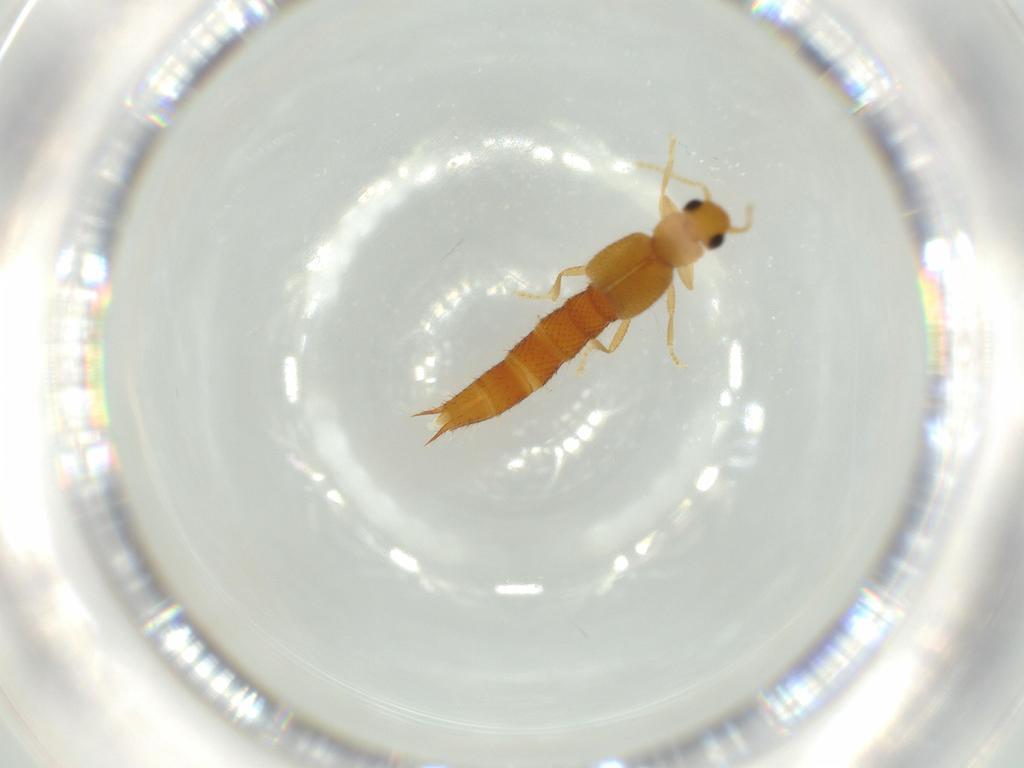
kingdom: Animalia
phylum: Arthropoda
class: Insecta
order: Coleoptera
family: Staphylinidae
